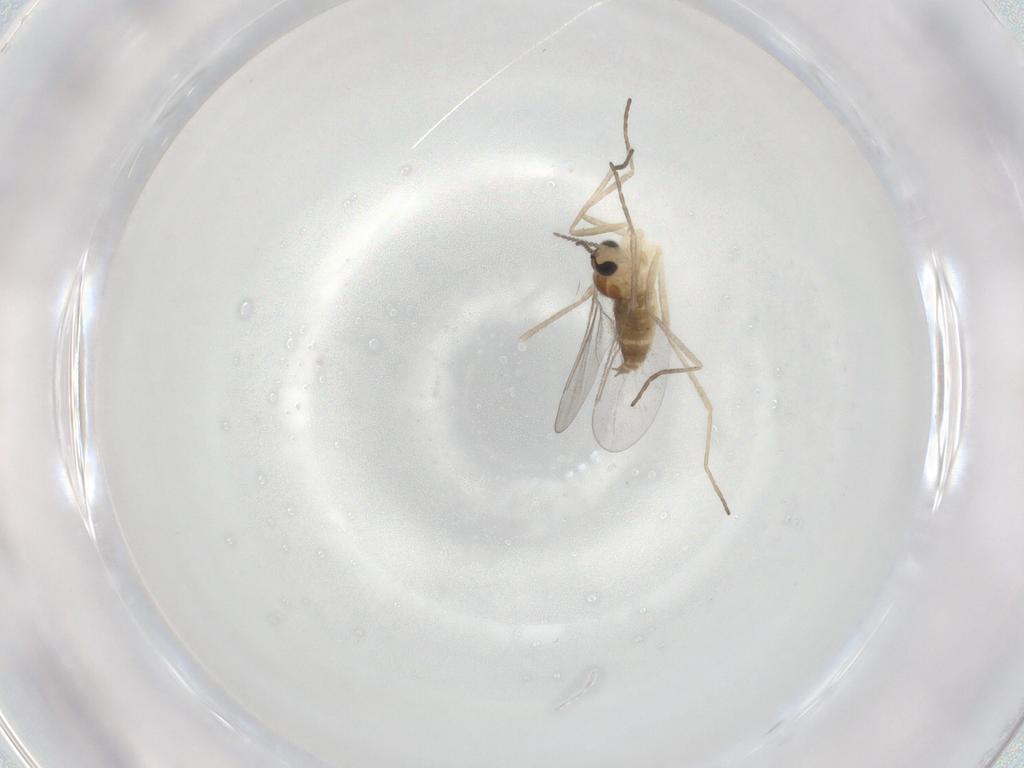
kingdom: Animalia
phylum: Arthropoda
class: Insecta
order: Diptera
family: Cecidomyiidae
